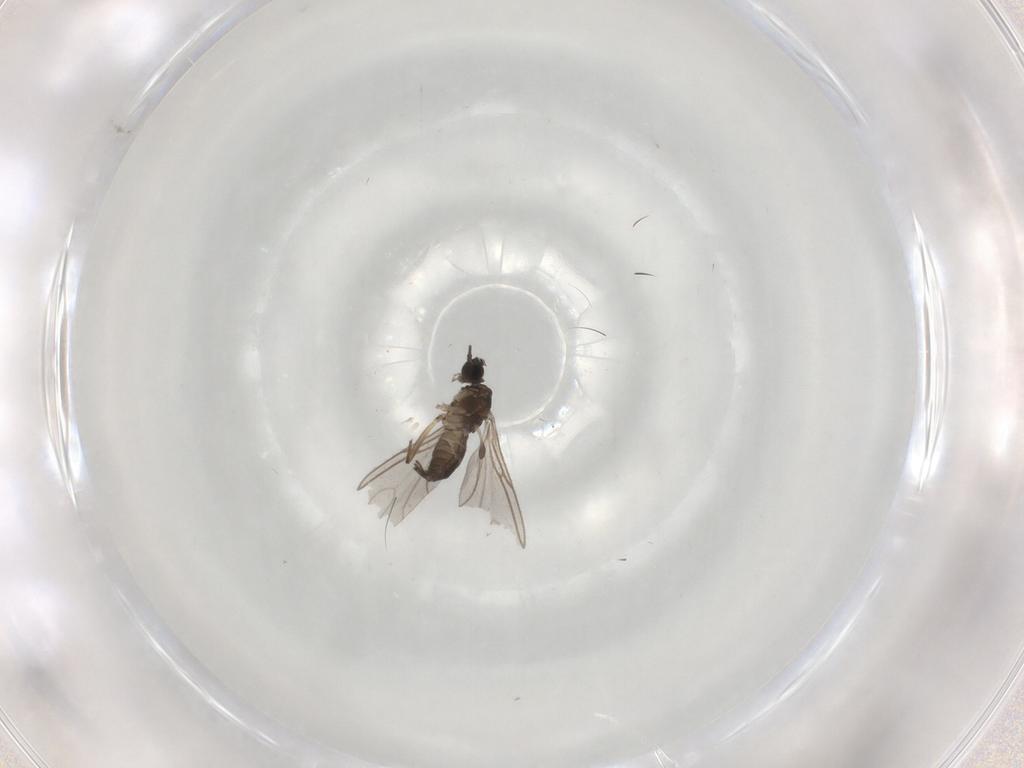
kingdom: Animalia
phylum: Arthropoda
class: Insecta
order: Diptera
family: Sciaridae
